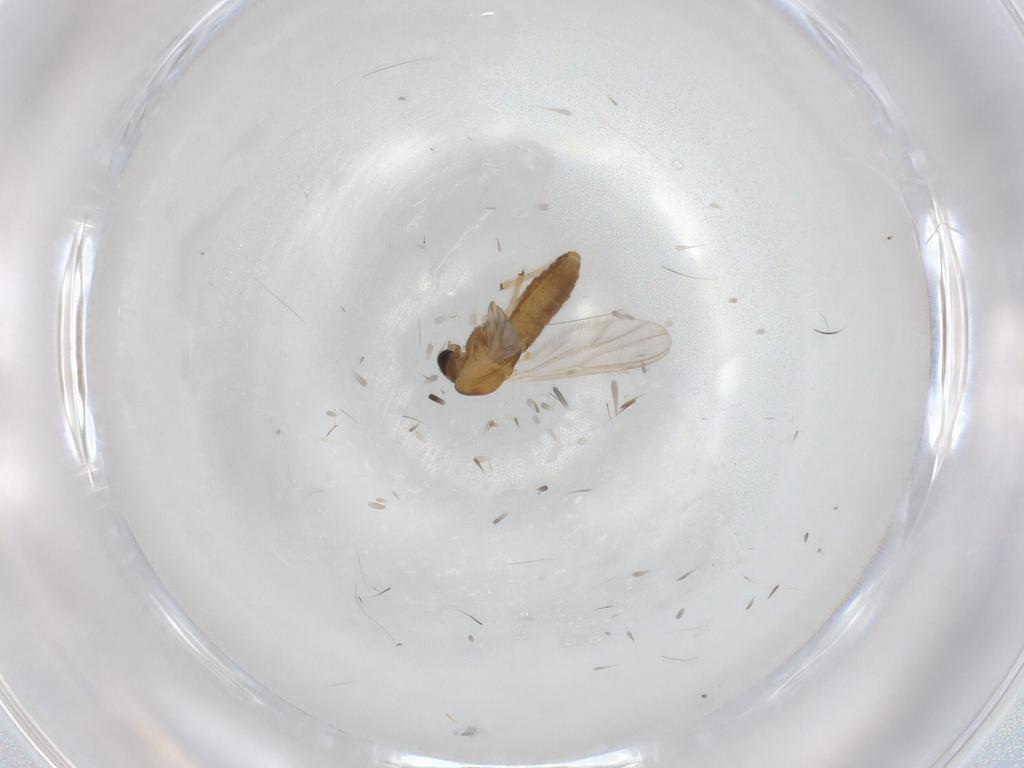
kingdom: Animalia
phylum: Arthropoda
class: Insecta
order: Diptera
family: Chironomidae
